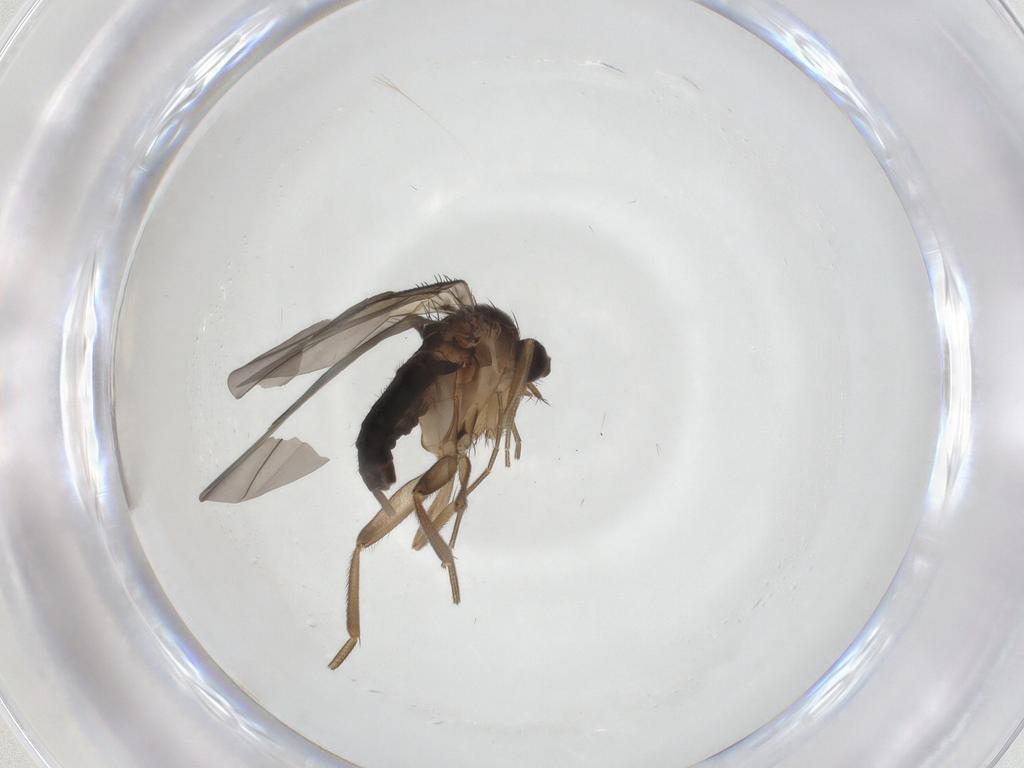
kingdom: Animalia
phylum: Arthropoda
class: Insecta
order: Diptera
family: Phoridae
